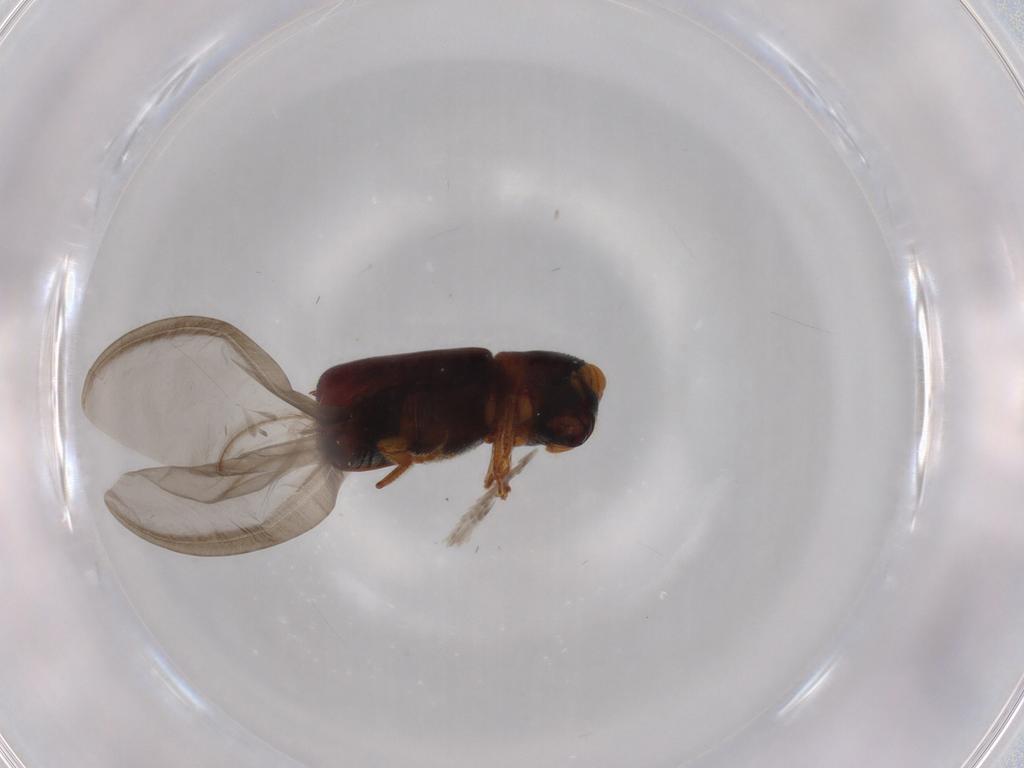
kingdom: Animalia
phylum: Arthropoda
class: Insecta
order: Coleoptera
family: Curculionidae
